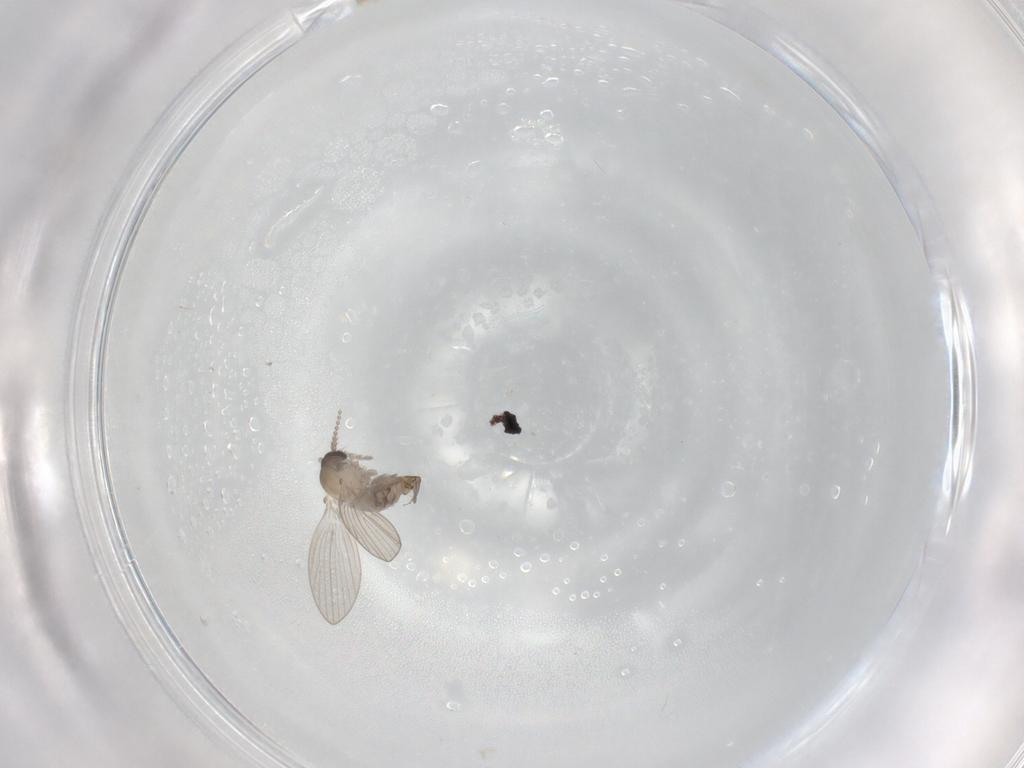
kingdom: Animalia
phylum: Arthropoda
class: Insecta
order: Diptera
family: Psychodidae
